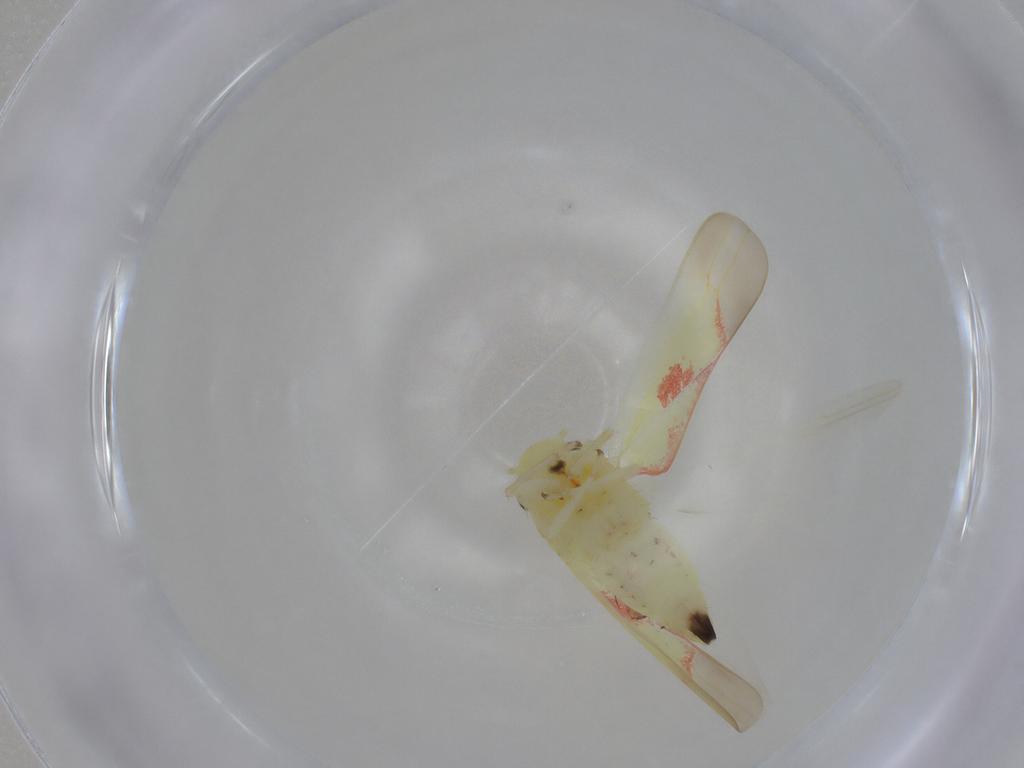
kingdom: Animalia
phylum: Arthropoda
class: Insecta
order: Hemiptera
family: Cicadellidae
